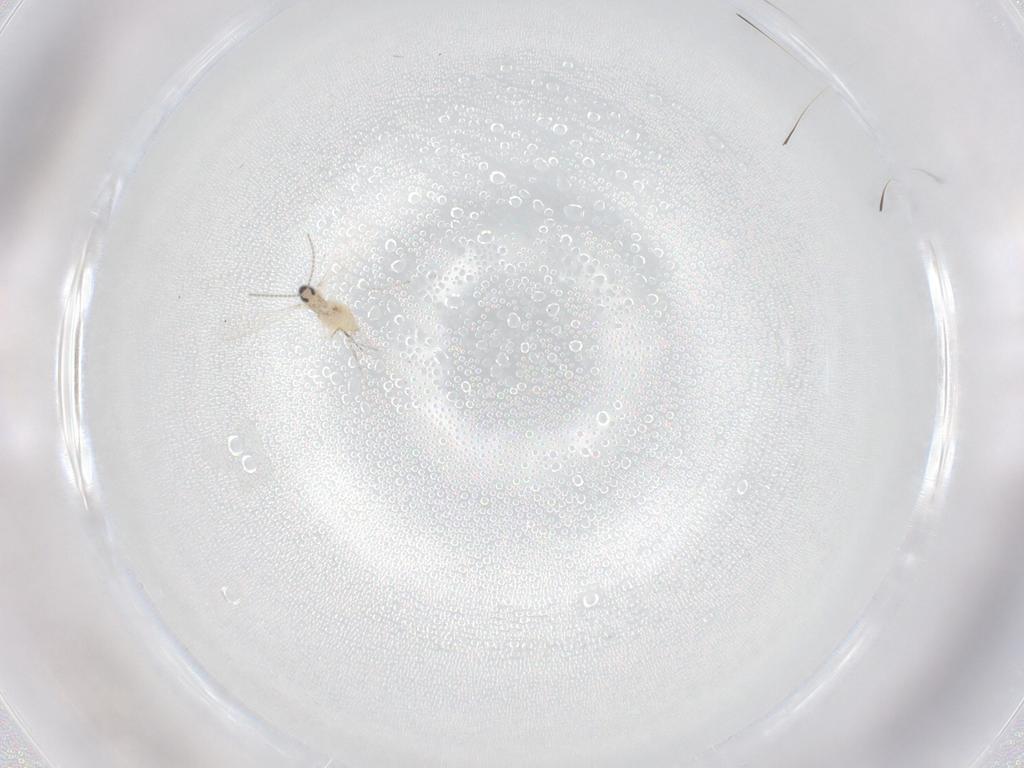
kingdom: Animalia
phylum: Arthropoda
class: Insecta
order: Diptera
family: Cecidomyiidae
